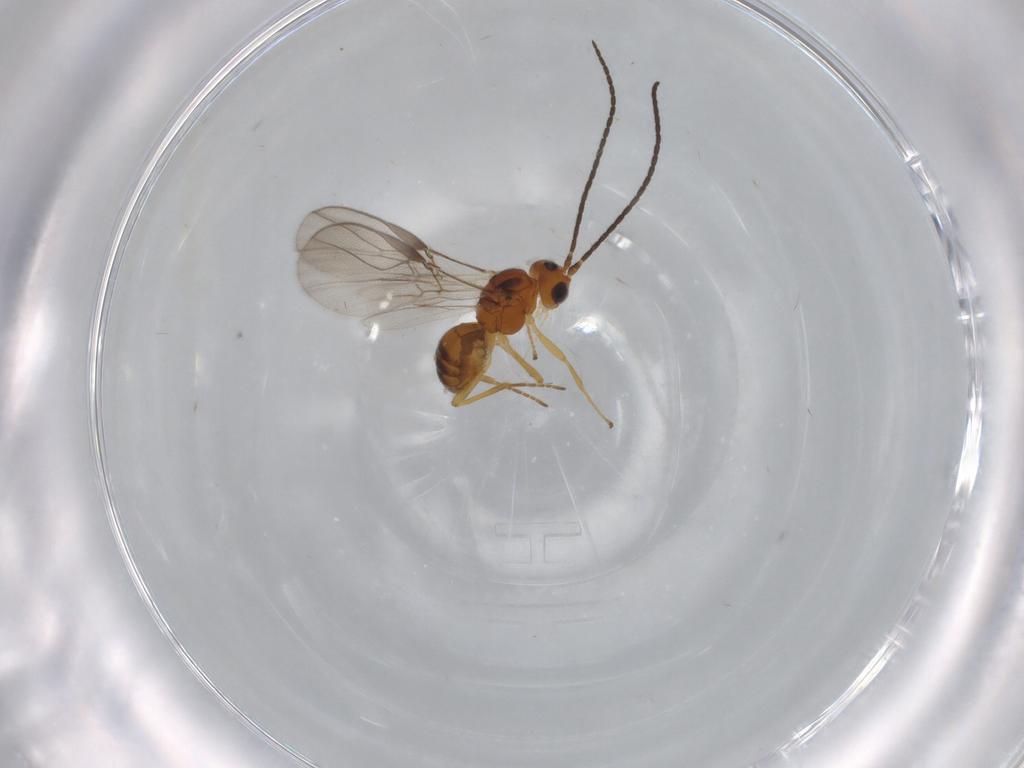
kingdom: Animalia
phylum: Arthropoda
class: Insecta
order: Hymenoptera
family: Braconidae
